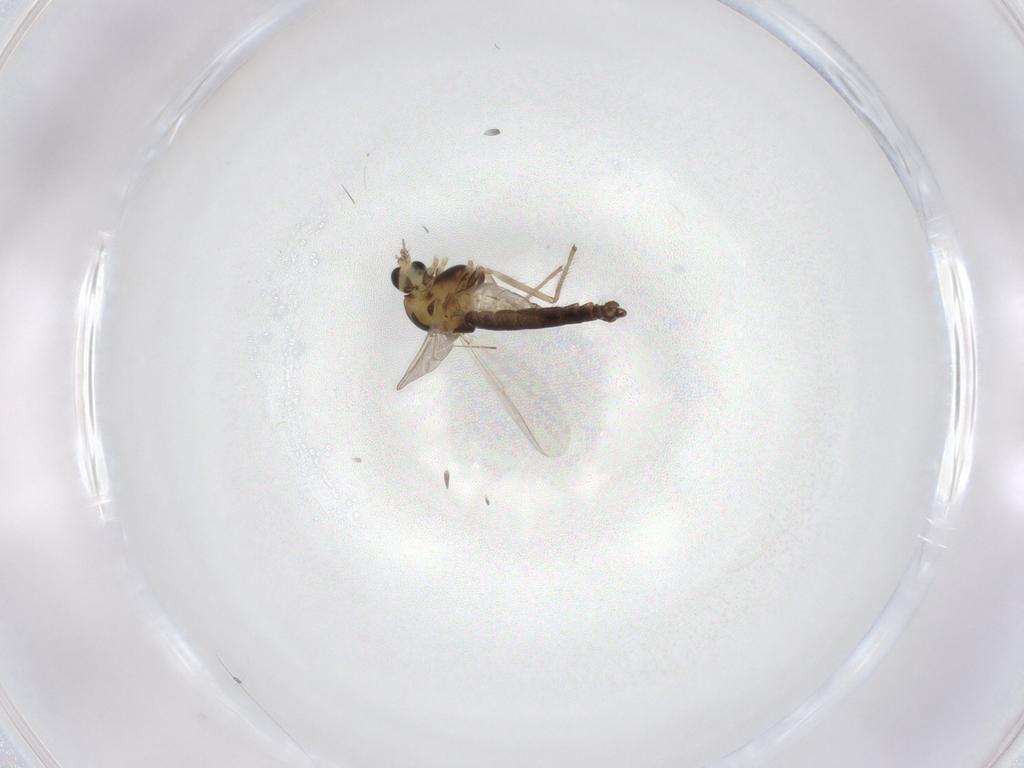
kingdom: Animalia
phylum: Arthropoda
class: Insecta
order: Diptera
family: Chironomidae
